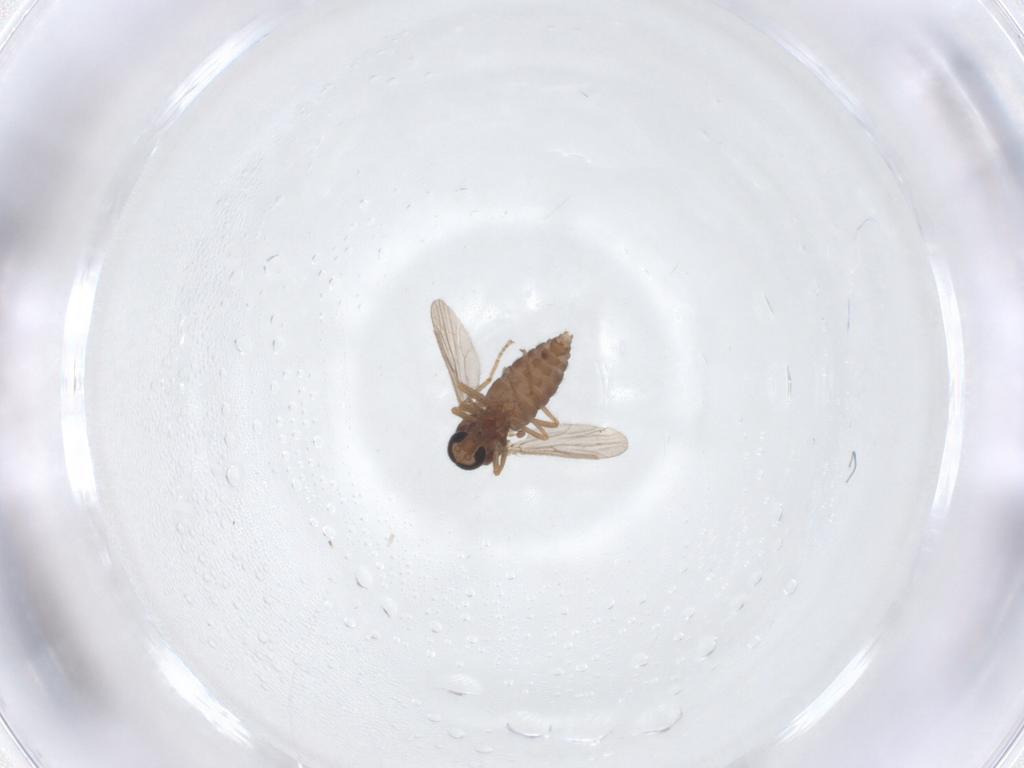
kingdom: Animalia
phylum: Arthropoda
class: Insecta
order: Diptera
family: Ceratopogonidae
